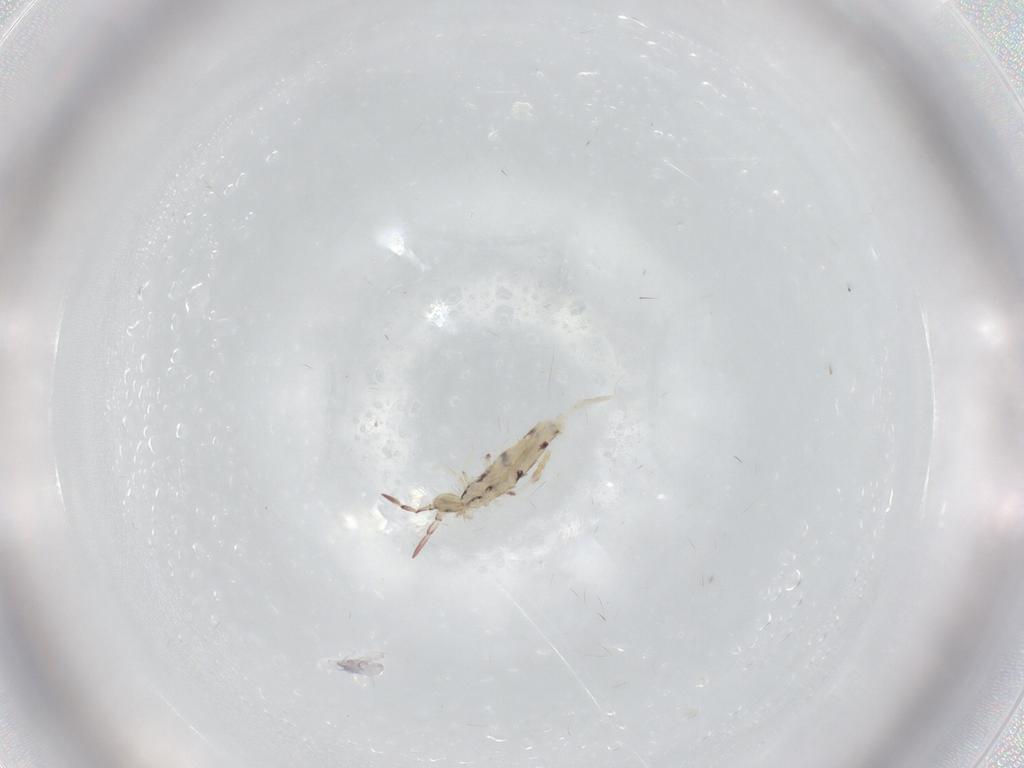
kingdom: Animalia
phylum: Arthropoda
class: Collembola
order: Entomobryomorpha
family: Entomobryidae
